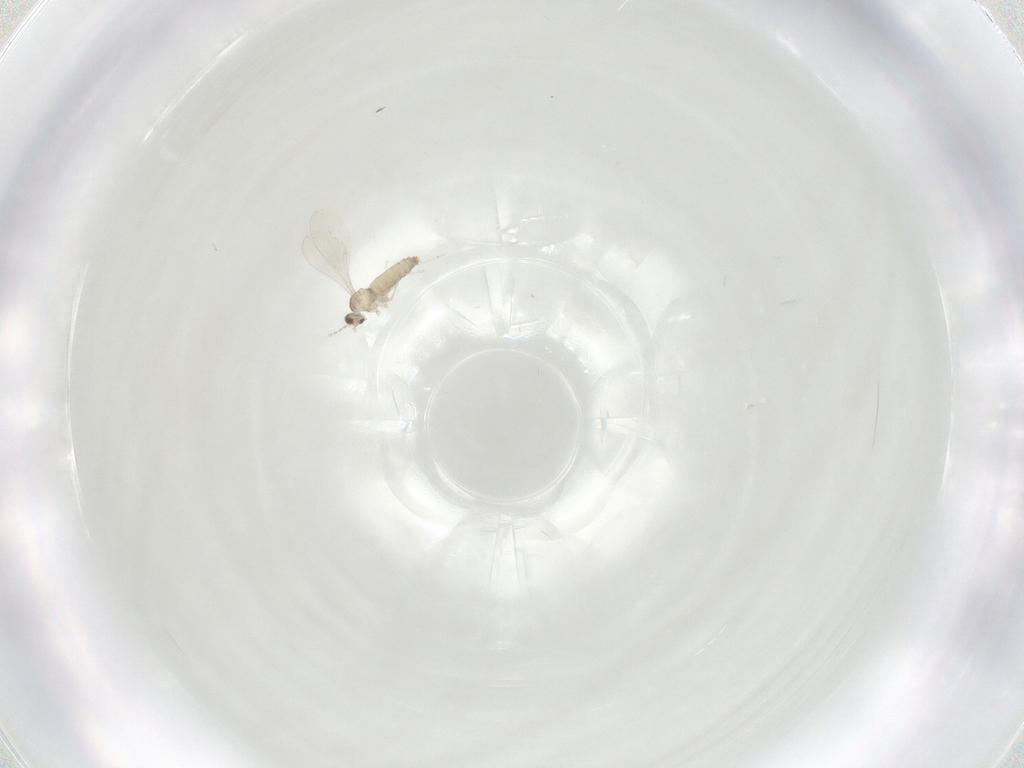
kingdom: Animalia
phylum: Arthropoda
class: Insecta
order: Diptera
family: Cecidomyiidae
